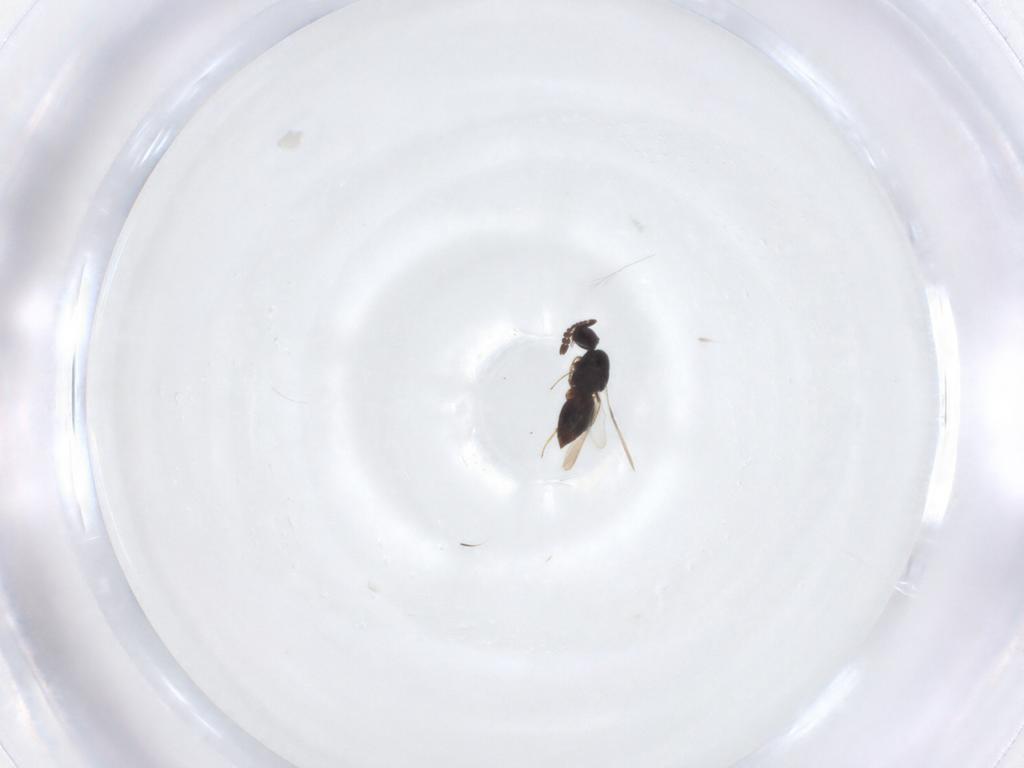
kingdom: Animalia
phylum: Arthropoda
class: Insecta
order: Hymenoptera
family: Ceraphronidae
